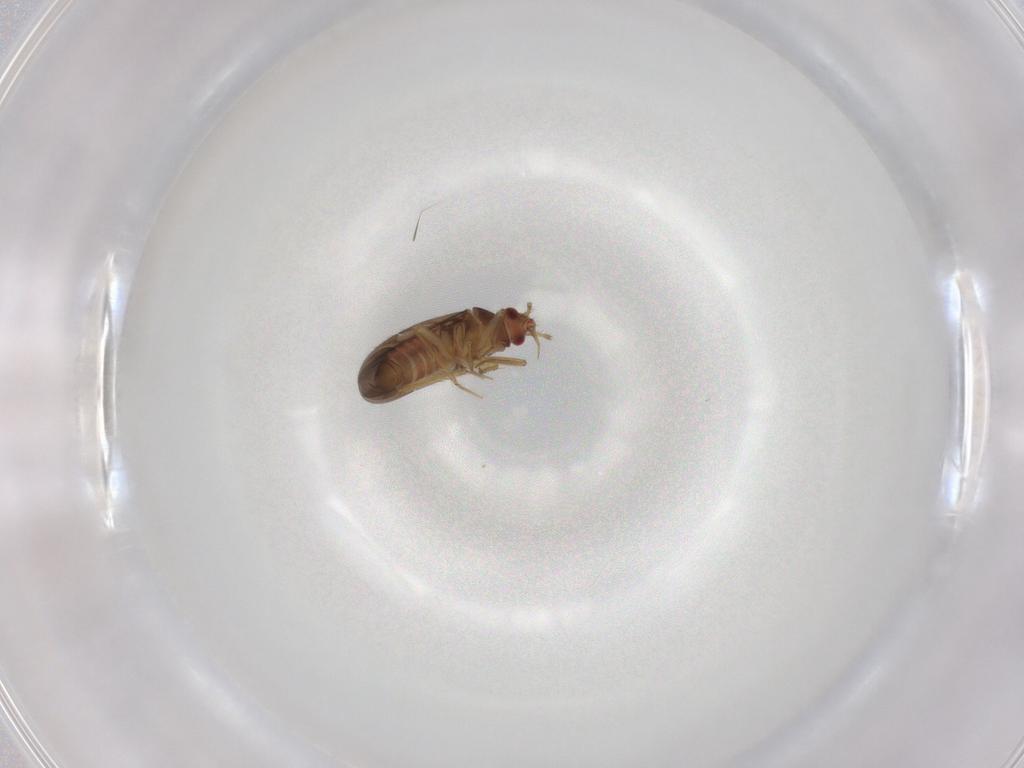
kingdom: Animalia
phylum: Arthropoda
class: Insecta
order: Hemiptera
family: Ceratocombidae
